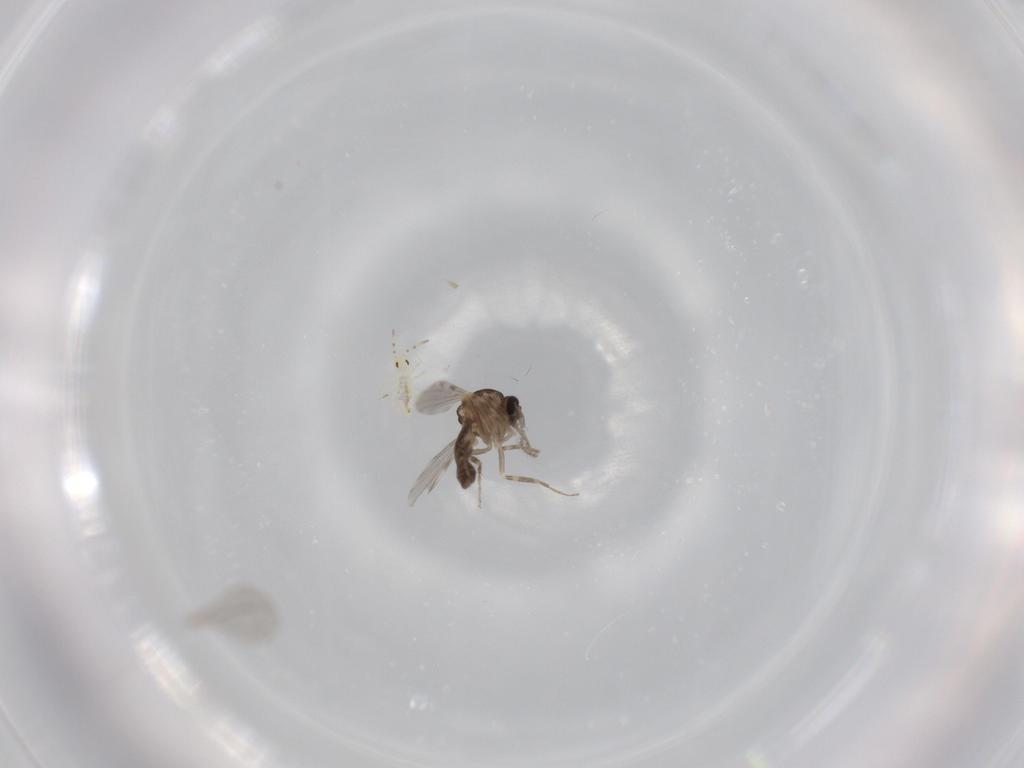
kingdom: Animalia
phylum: Arthropoda
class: Insecta
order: Diptera
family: Ceratopogonidae
